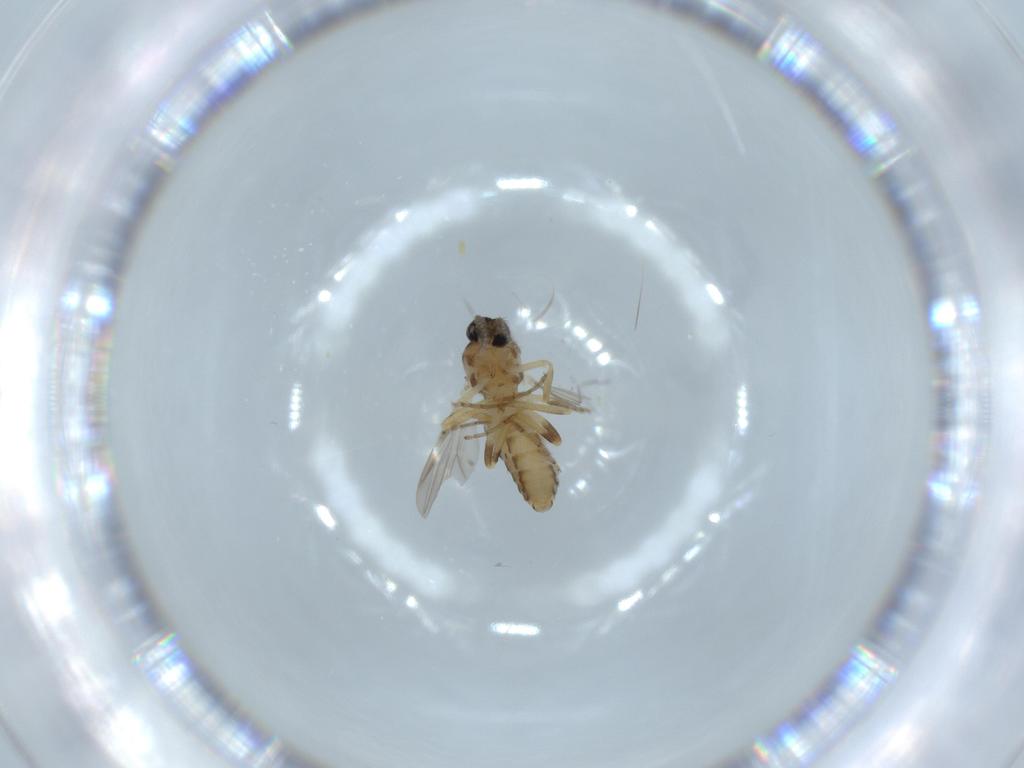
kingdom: Animalia
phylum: Arthropoda
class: Insecta
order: Diptera
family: Ceratopogonidae
